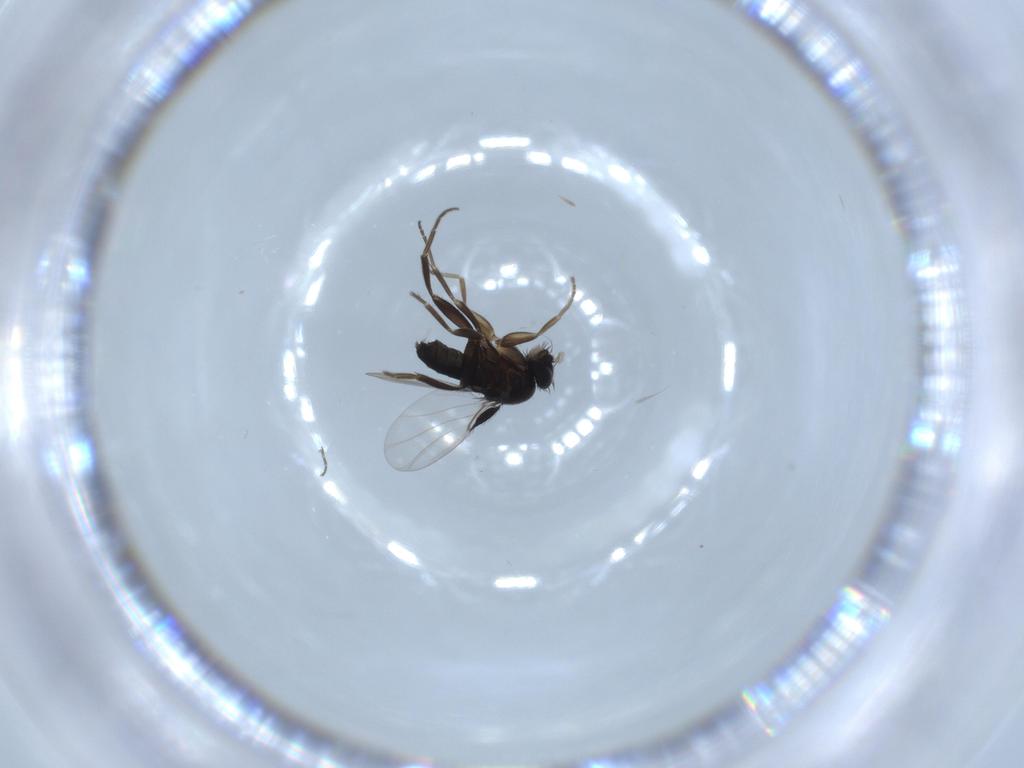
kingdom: Animalia
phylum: Arthropoda
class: Insecta
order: Diptera
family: Phoridae
